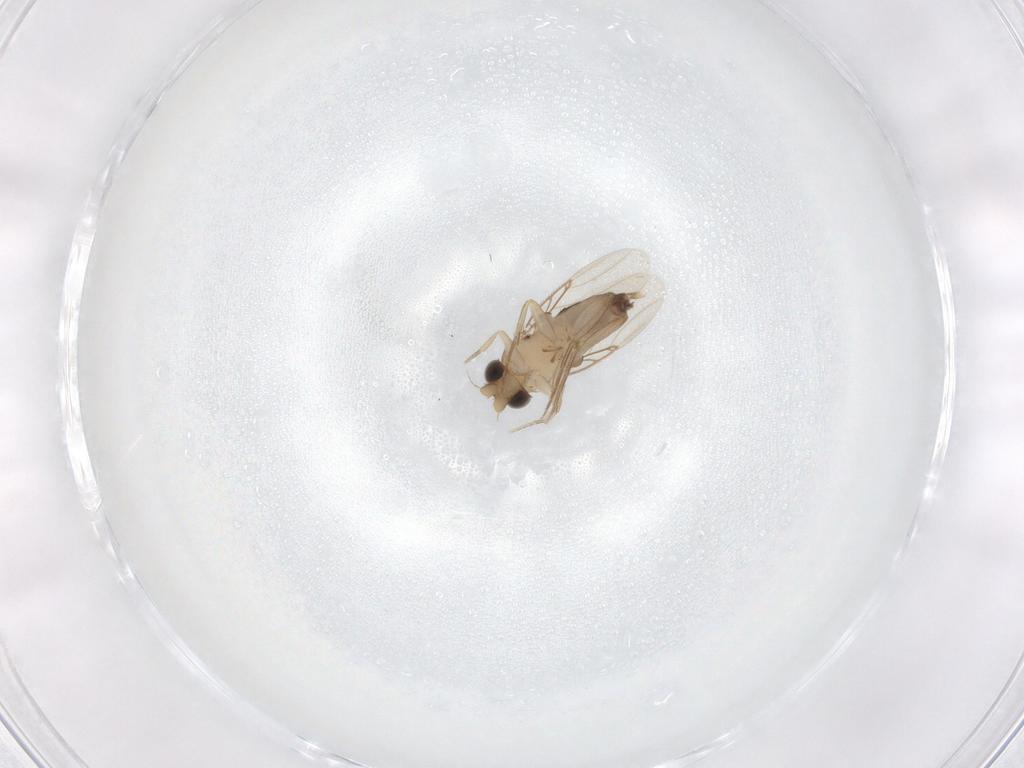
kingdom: Animalia
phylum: Arthropoda
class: Insecta
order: Diptera
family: Phoridae
